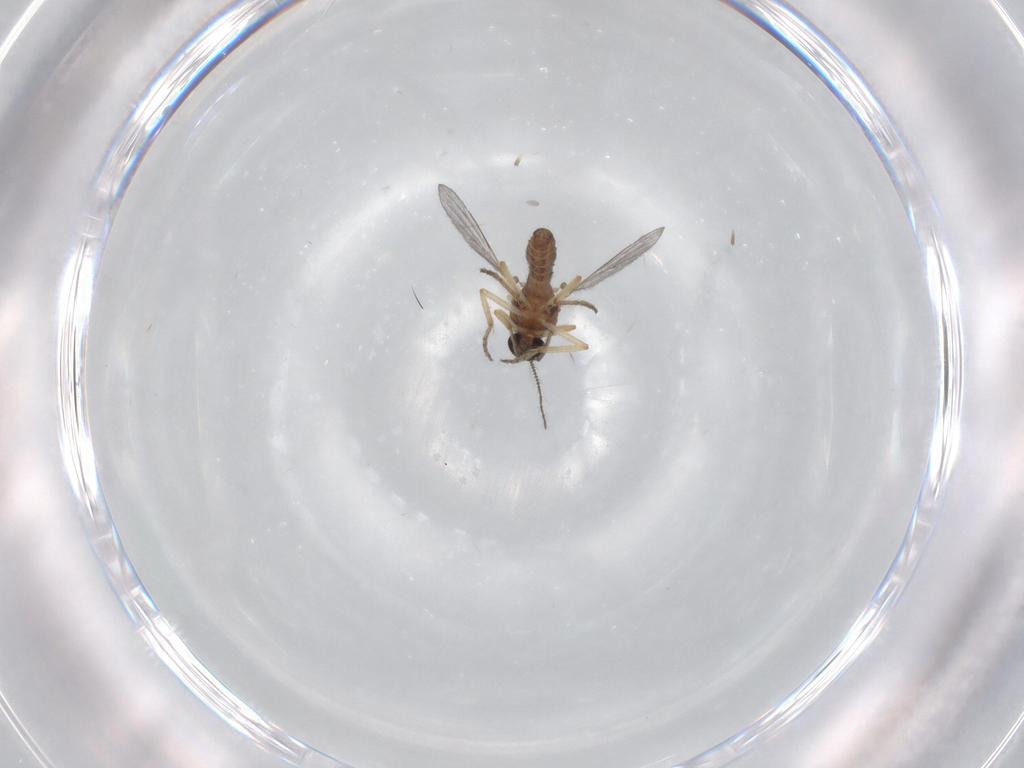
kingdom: Animalia
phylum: Arthropoda
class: Insecta
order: Diptera
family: Ceratopogonidae
